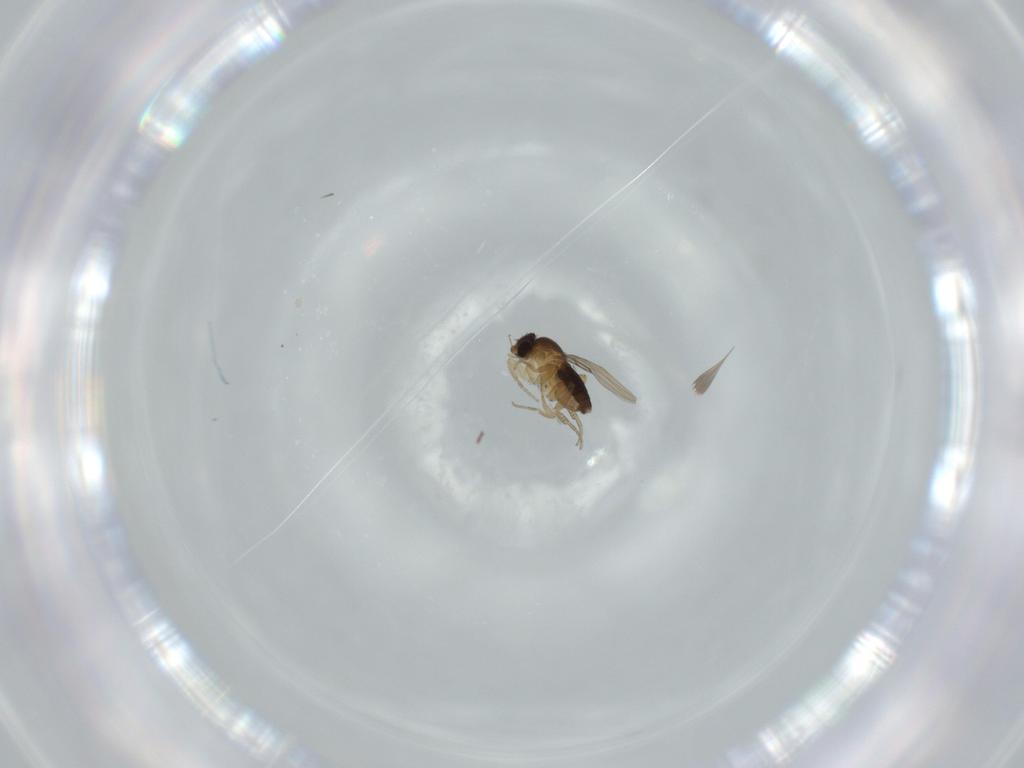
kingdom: Animalia
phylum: Arthropoda
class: Insecta
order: Diptera
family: Phoridae
